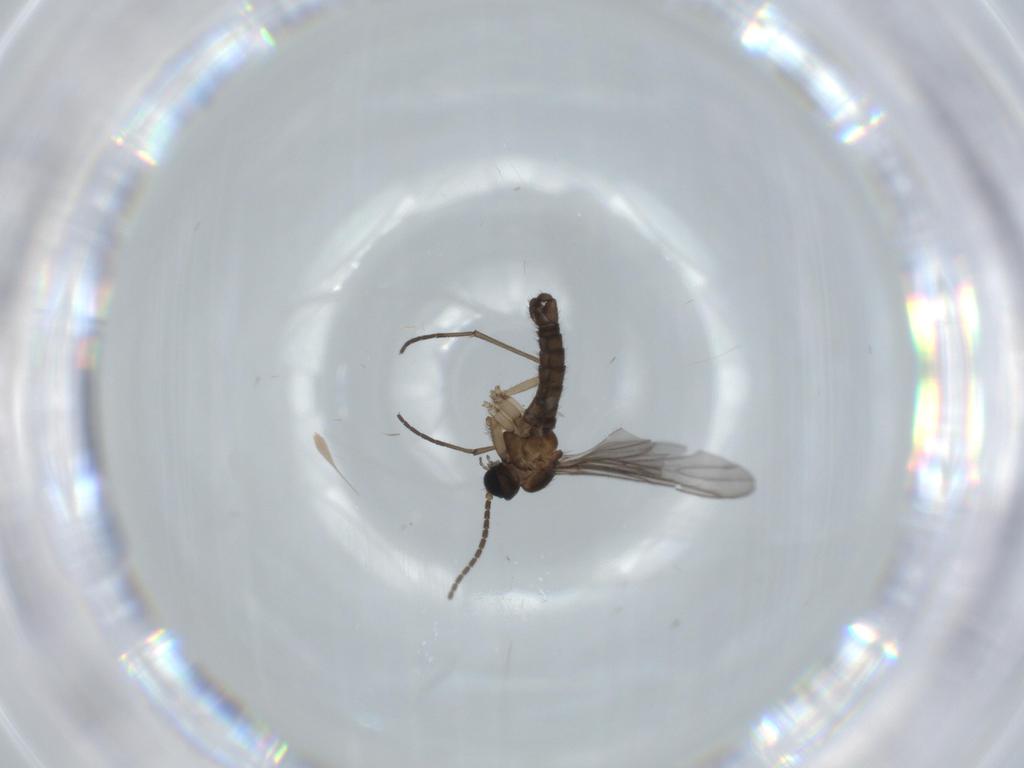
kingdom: Animalia
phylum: Arthropoda
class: Insecta
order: Diptera
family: Sciaridae
